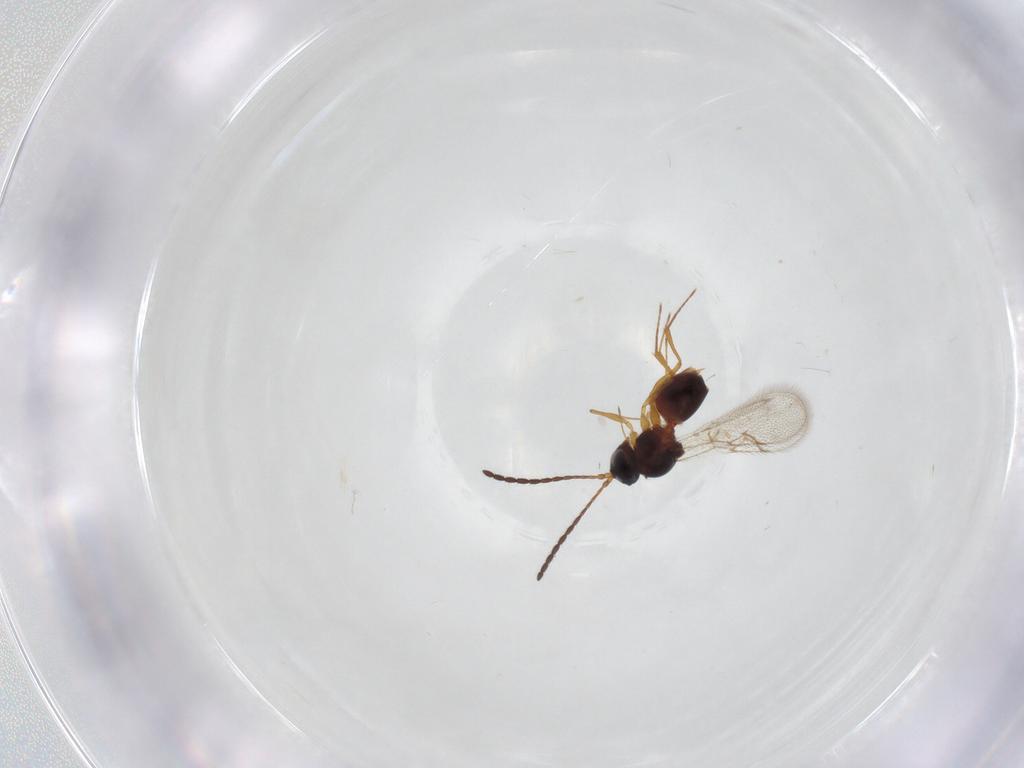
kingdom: Animalia
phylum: Arthropoda
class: Insecta
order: Hymenoptera
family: Figitidae
